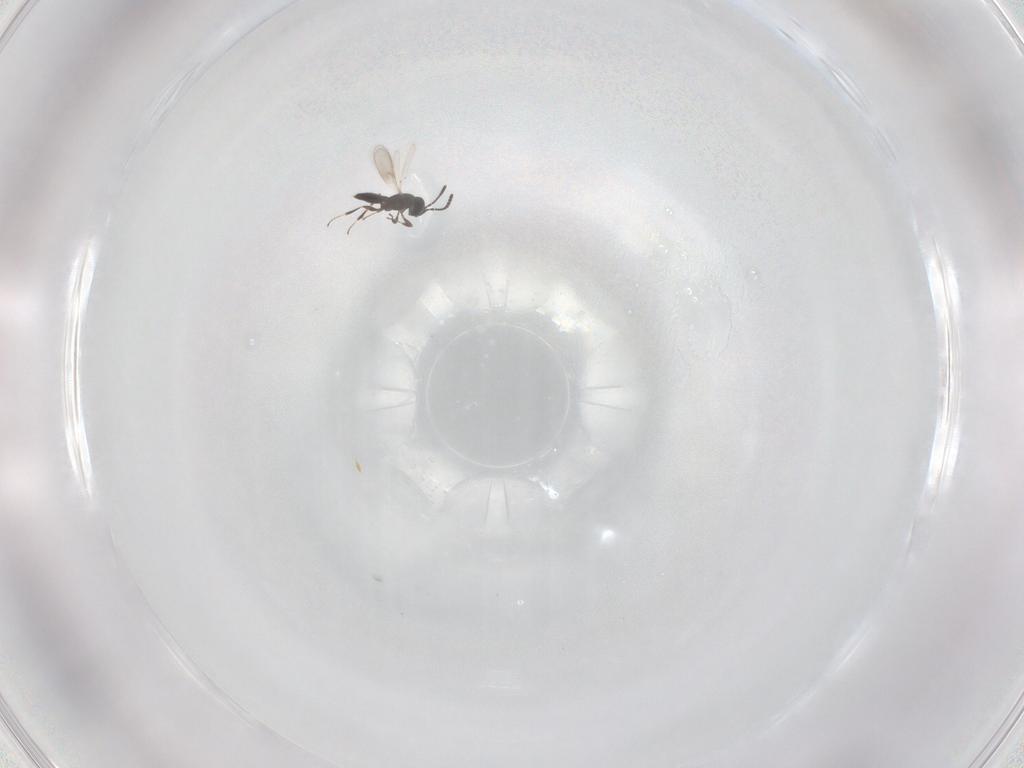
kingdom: Animalia
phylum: Arthropoda
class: Insecta
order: Hymenoptera
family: Scelionidae
